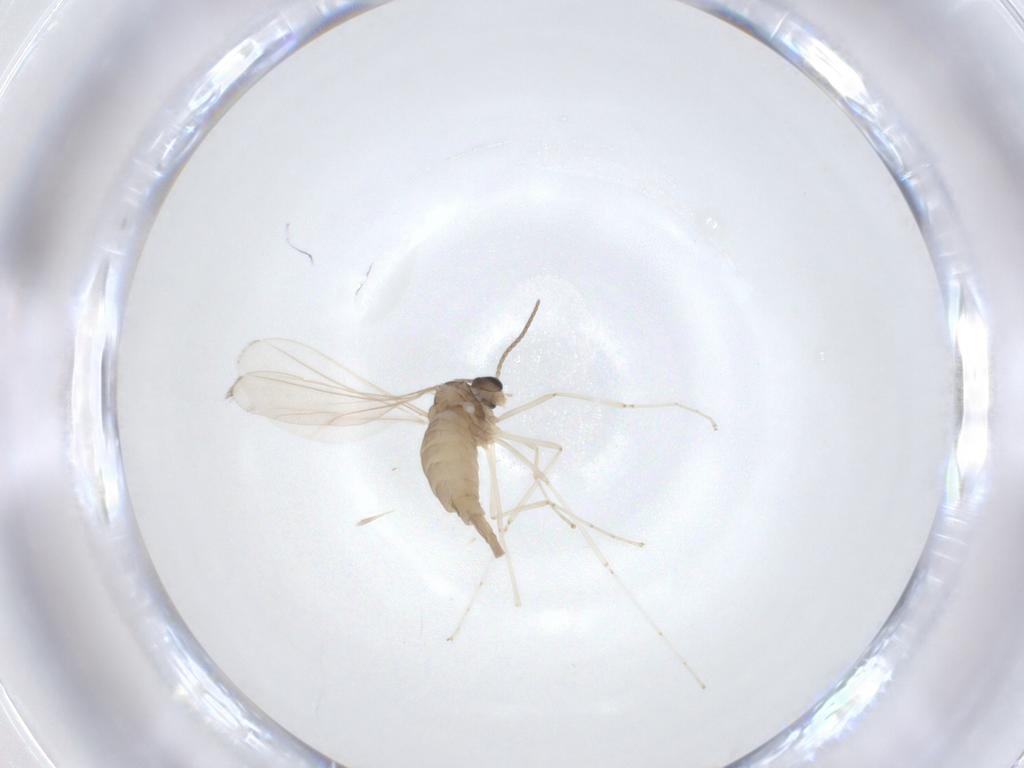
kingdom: Animalia
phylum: Arthropoda
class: Insecta
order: Diptera
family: Cecidomyiidae
